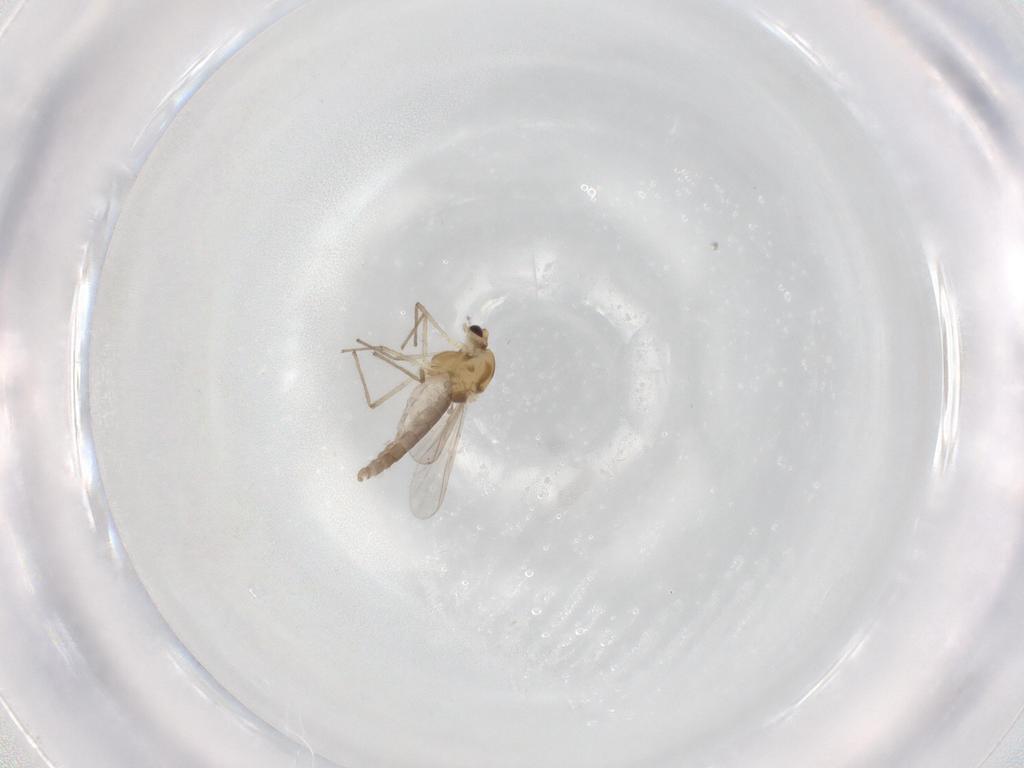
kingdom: Animalia
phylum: Arthropoda
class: Insecta
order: Diptera
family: Chironomidae
